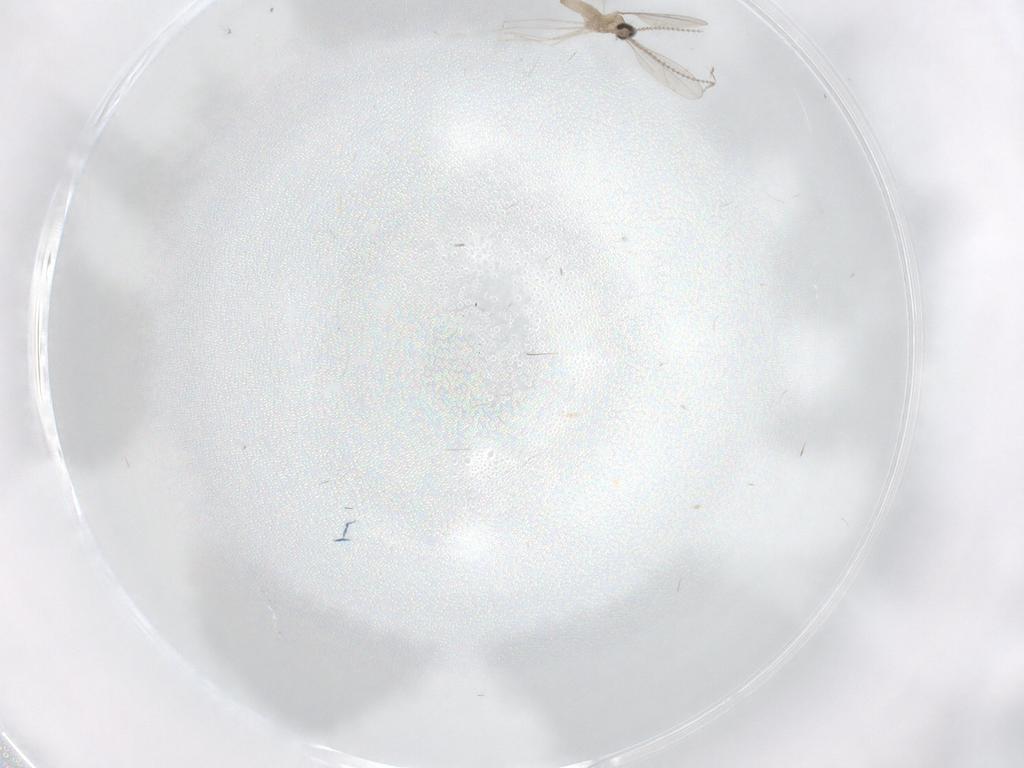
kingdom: Animalia
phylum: Arthropoda
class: Insecta
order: Diptera
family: Cecidomyiidae
